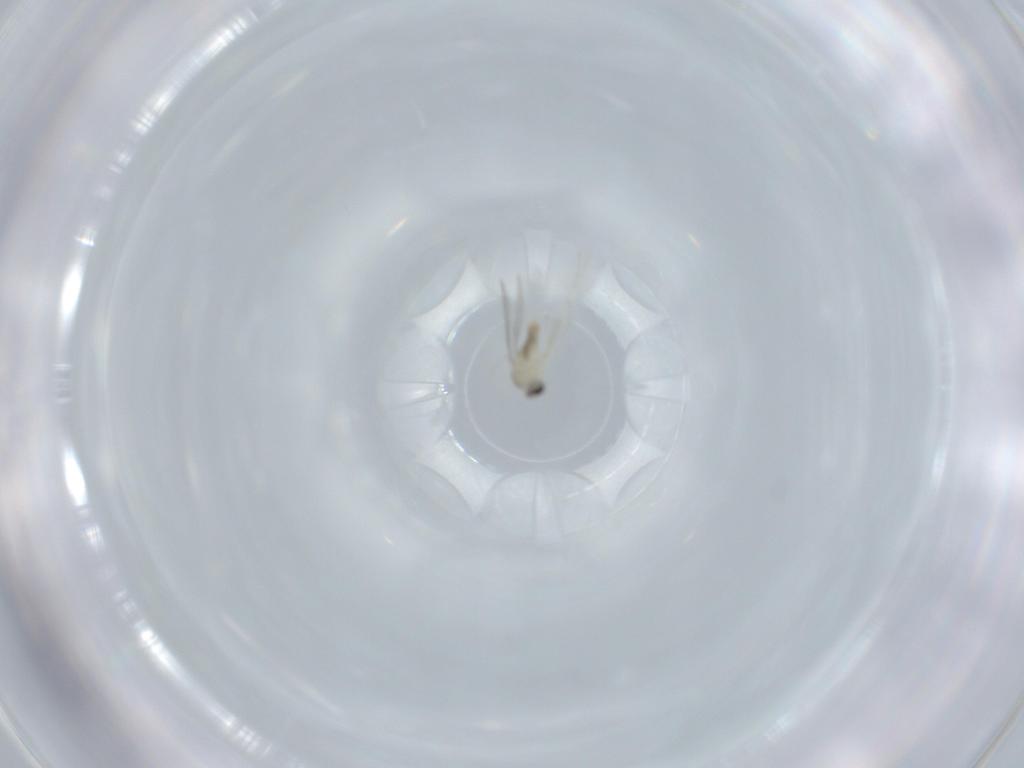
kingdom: Animalia
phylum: Arthropoda
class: Insecta
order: Diptera
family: Cecidomyiidae
